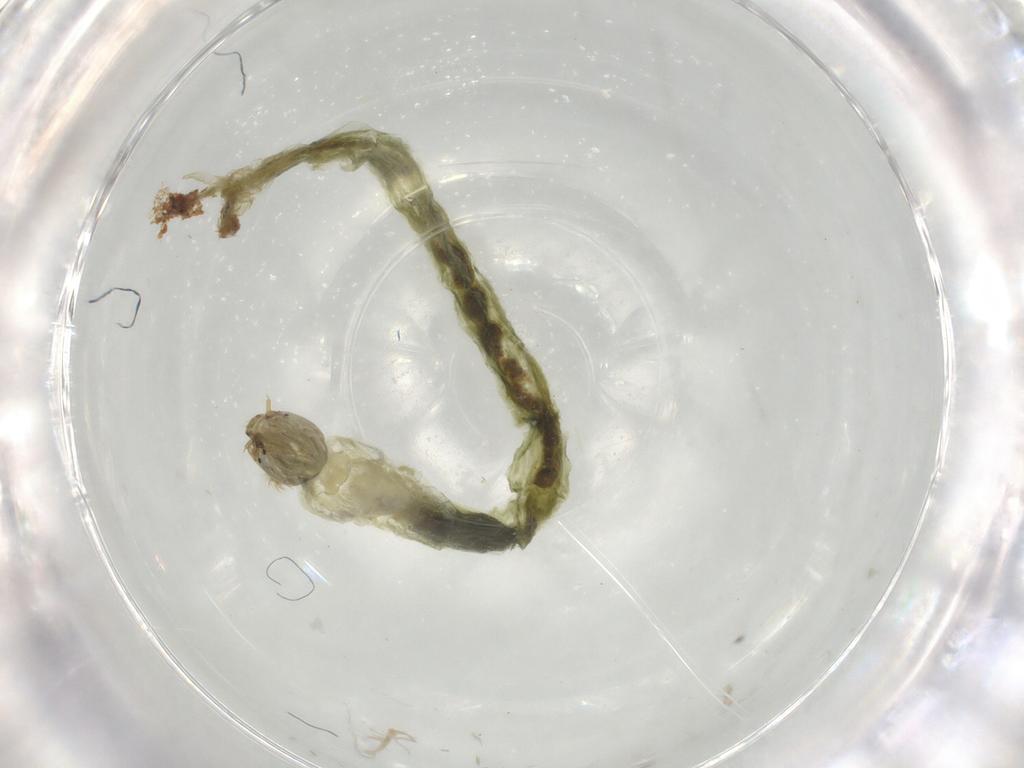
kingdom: Animalia
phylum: Arthropoda
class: Insecta
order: Diptera
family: Chironomidae
